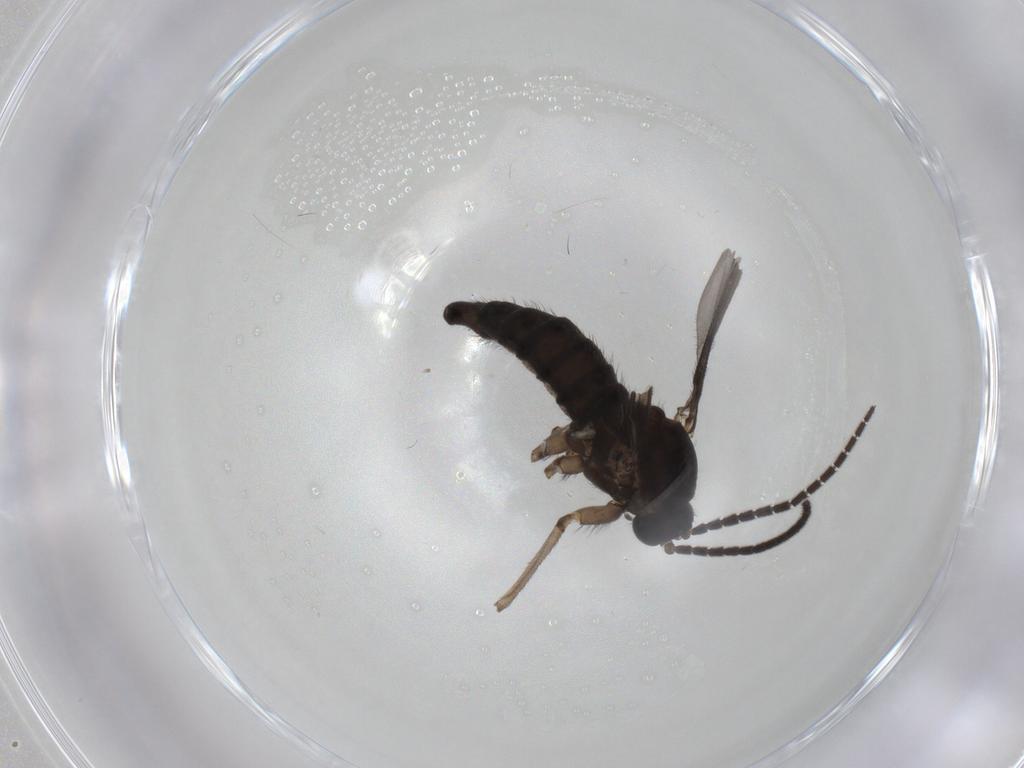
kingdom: Animalia
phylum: Arthropoda
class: Insecta
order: Diptera
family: Sciaridae
